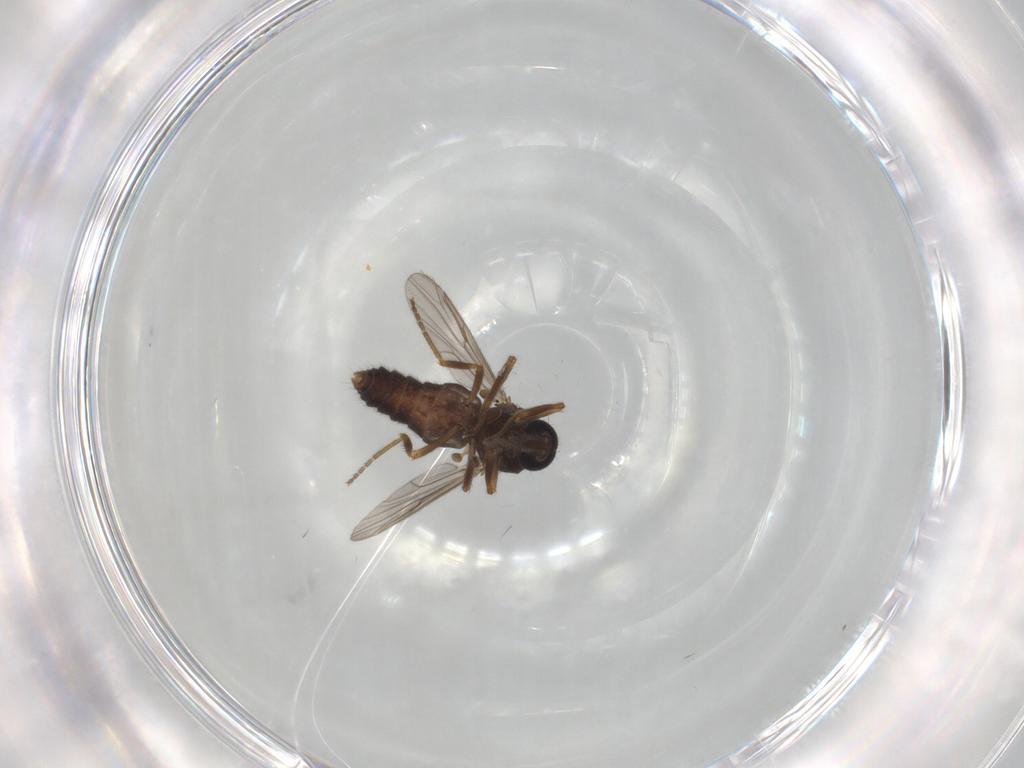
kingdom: Animalia
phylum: Arthropoda
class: Insecta
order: Diptera
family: Ceratopogonidae
